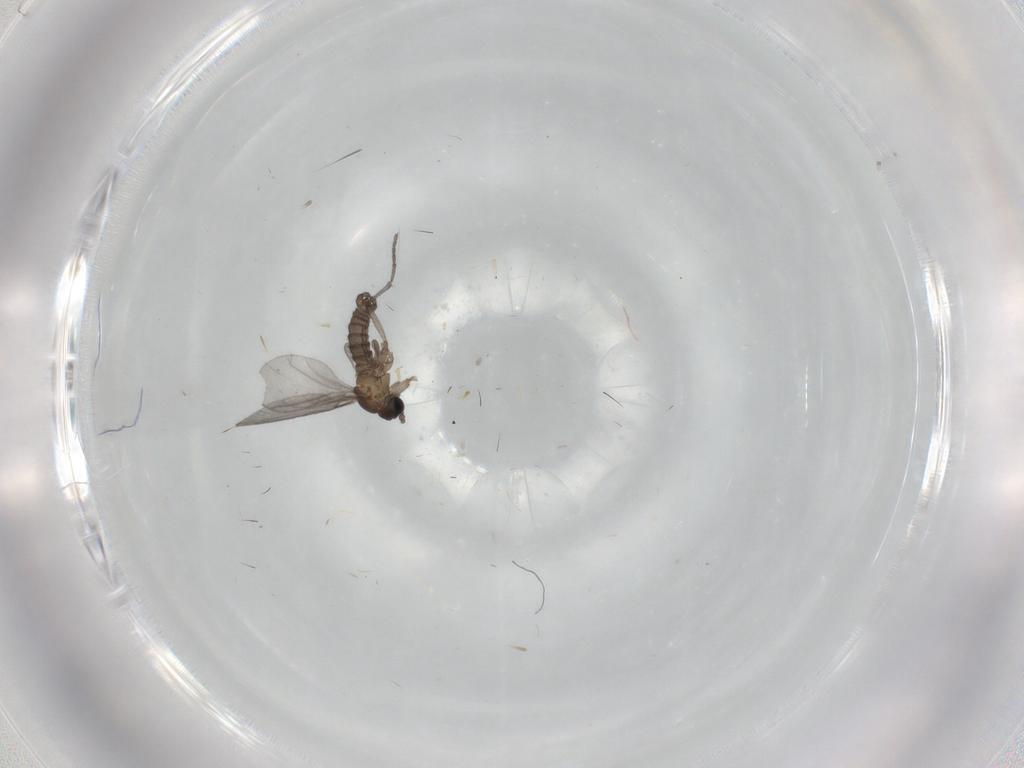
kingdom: Animalia
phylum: Arthropoda
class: Insecta
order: Diptera
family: Sciaridae
